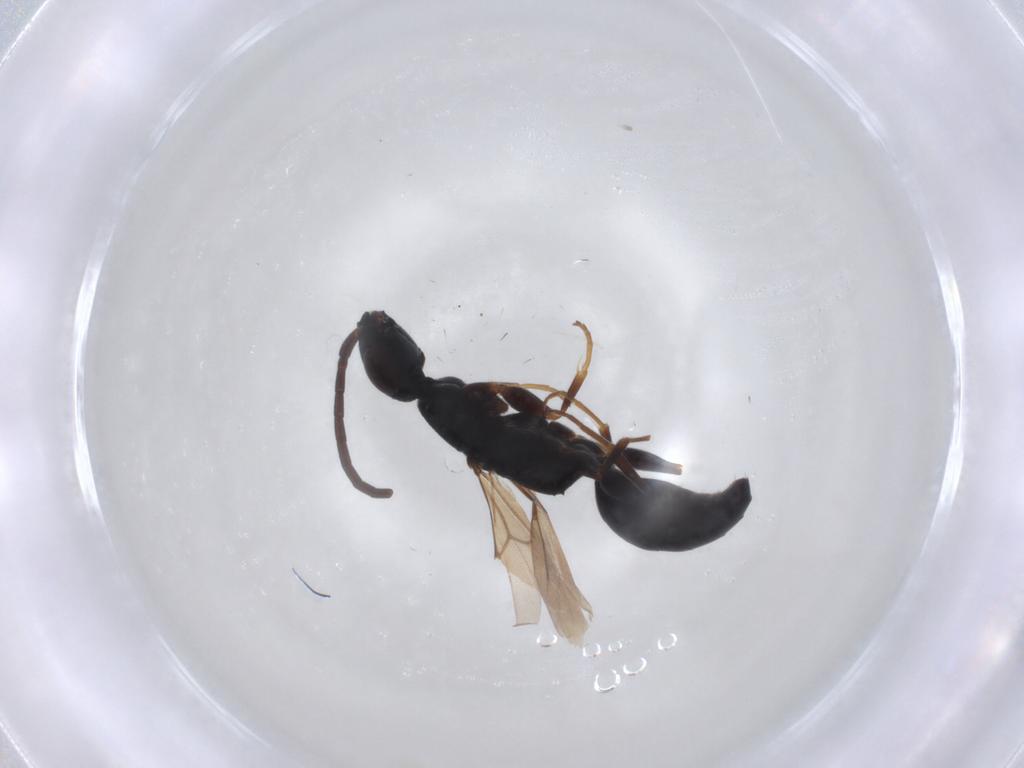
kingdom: Animalia
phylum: Arthropoda
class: Insecta
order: Hymenoptera
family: Bethylidae
